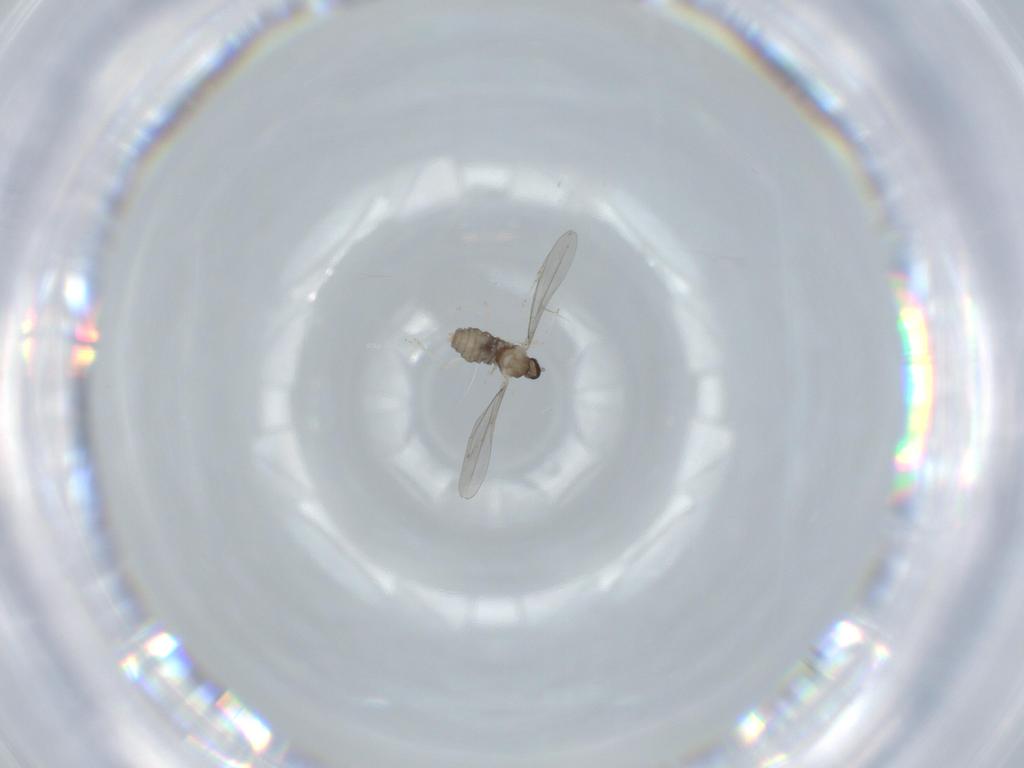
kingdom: Animalia
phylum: Arthropoda
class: Insecta
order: Diptera
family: Cecidomyiidae
